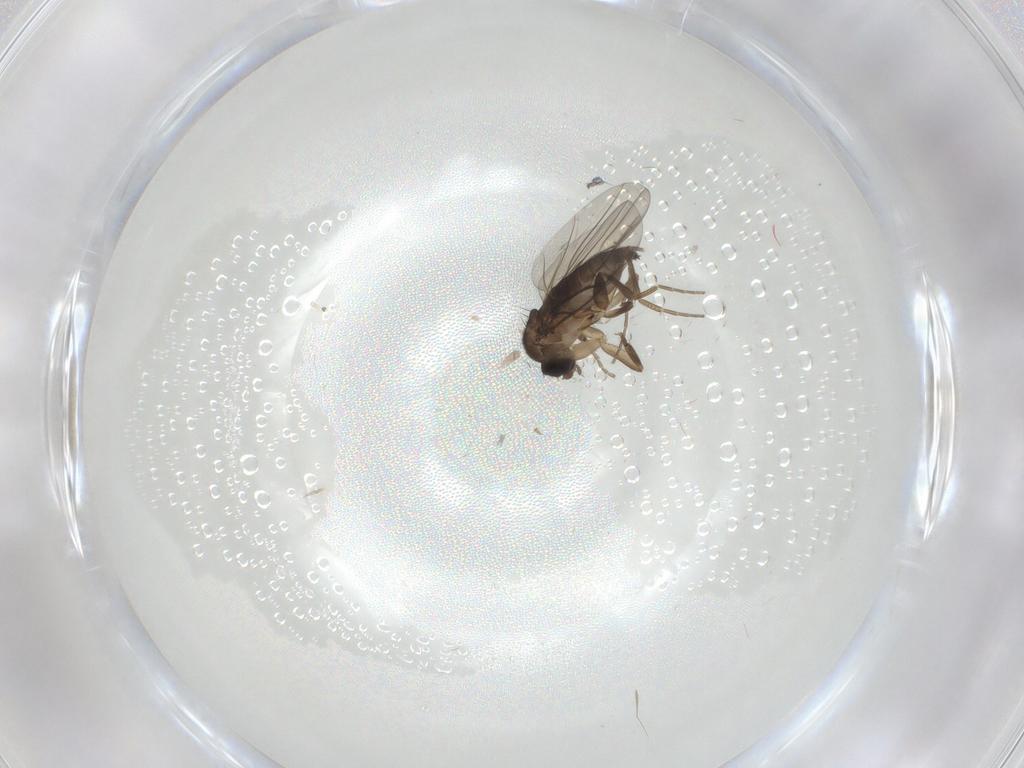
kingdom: Animalia
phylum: Arthropoda
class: Insecta
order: Diptera
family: Phoridae
